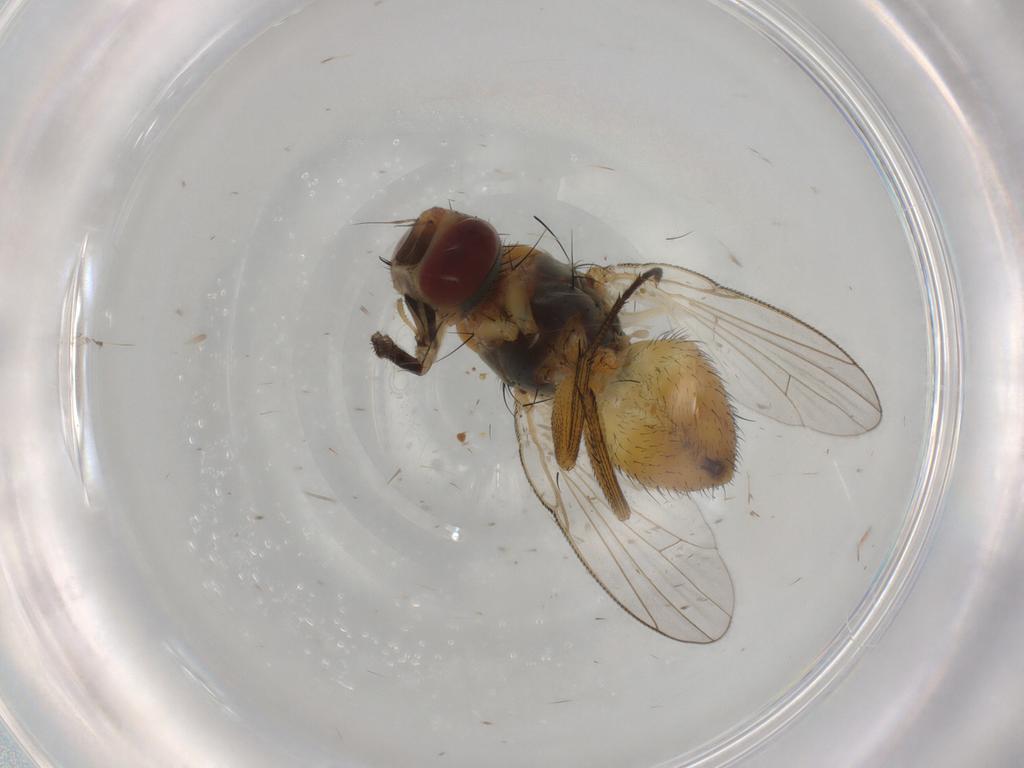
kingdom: Animalia
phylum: Arthropoda
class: Insecta
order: Diptera
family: Muscidae
